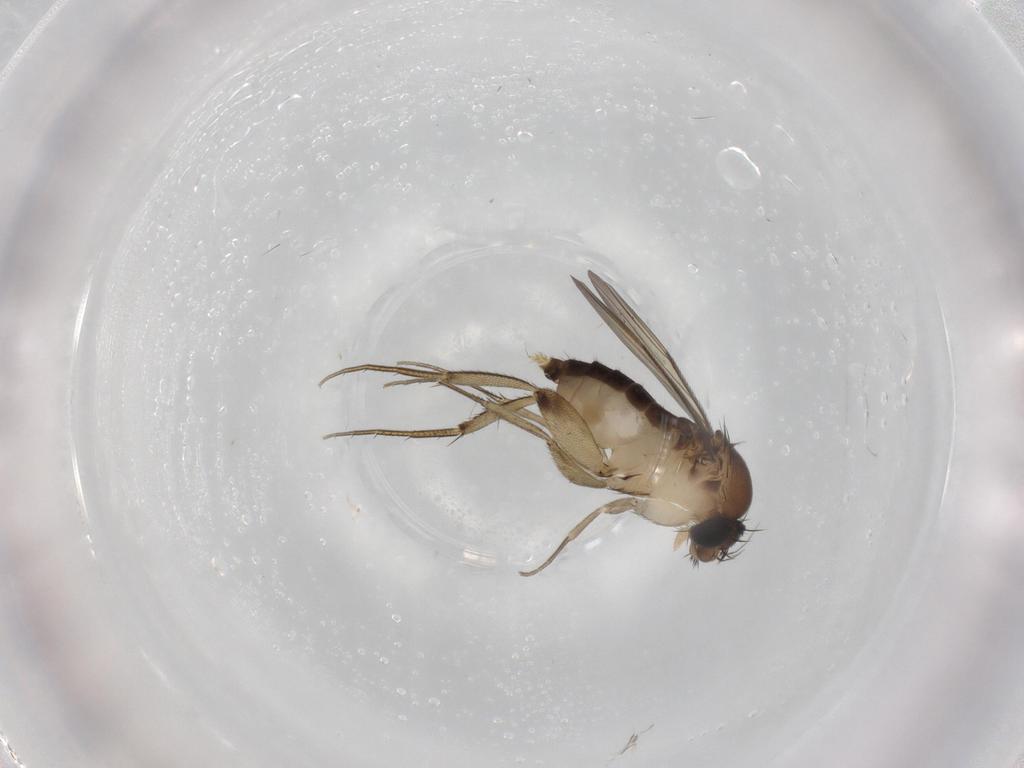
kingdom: Animalia
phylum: Arthropoda
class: Insecta
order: Diptera
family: Phoridae
